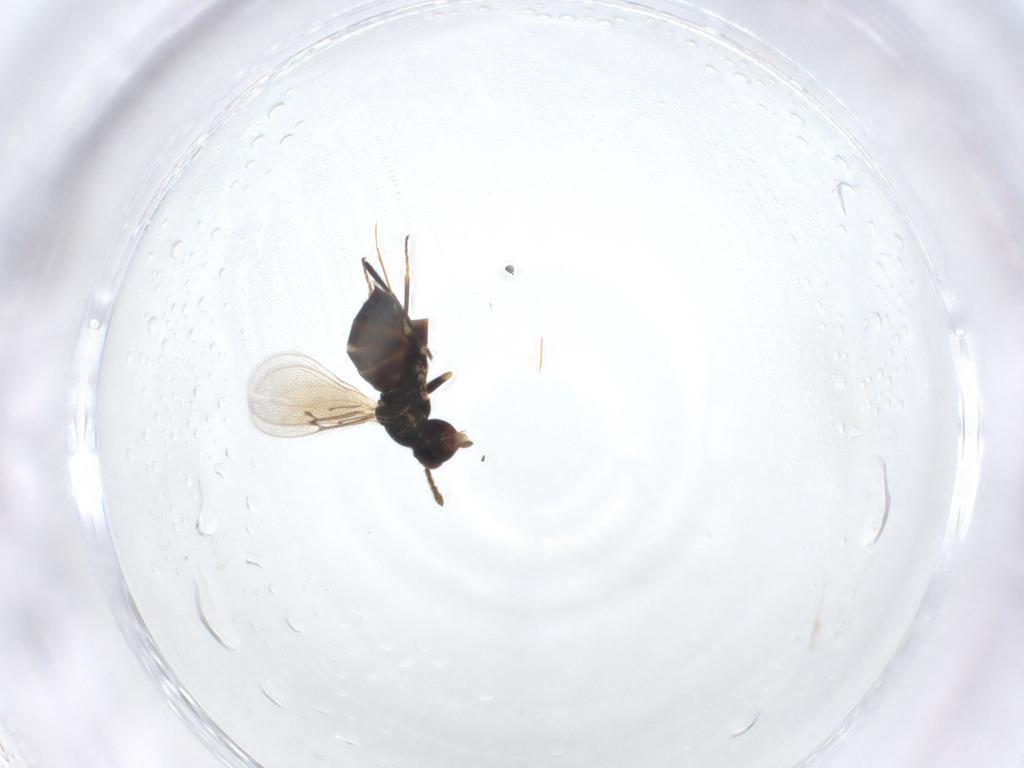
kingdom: Animalia
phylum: Arthropoda
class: Insecta
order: Hymenoptera
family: Eulophidae
